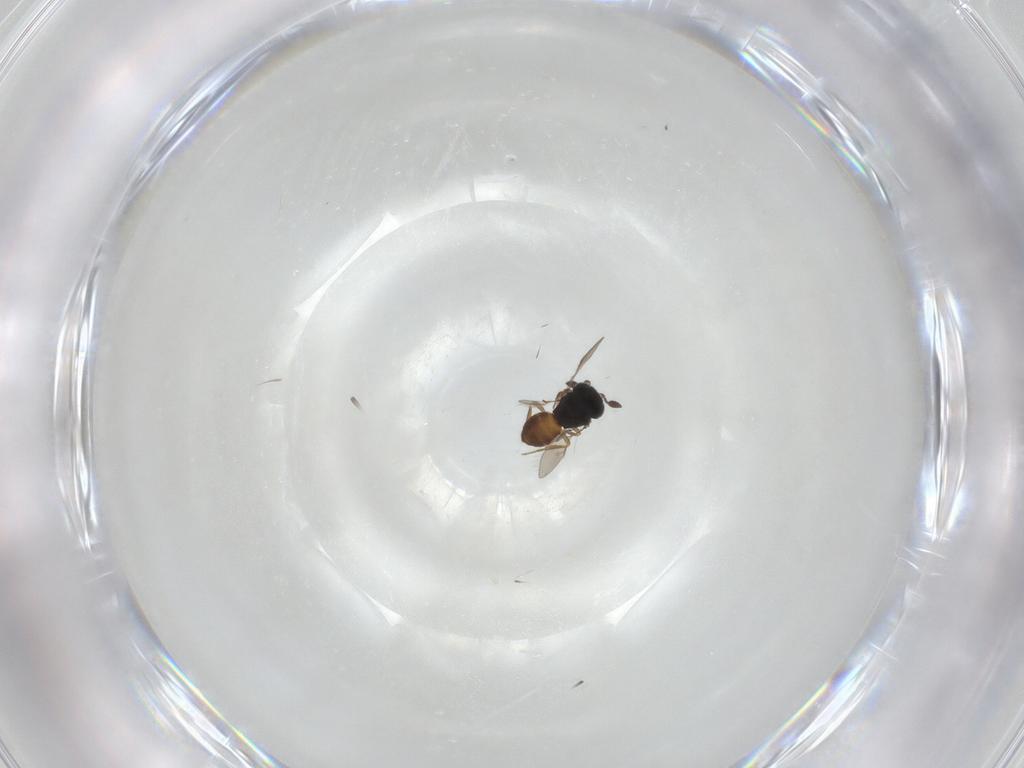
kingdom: Animalia
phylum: Arthropoda
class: Insecta
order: Hymenoptera
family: Scelionidae
